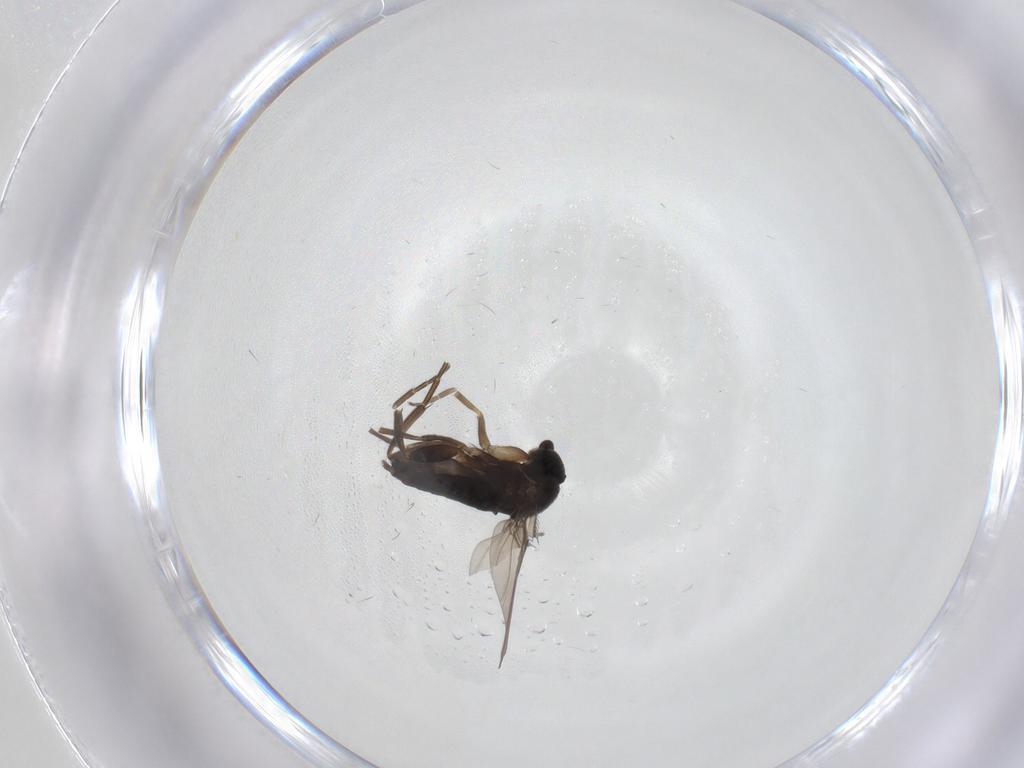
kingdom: Animalia
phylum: Arthropoda
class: Insecta
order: Diptera
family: Phoridae
